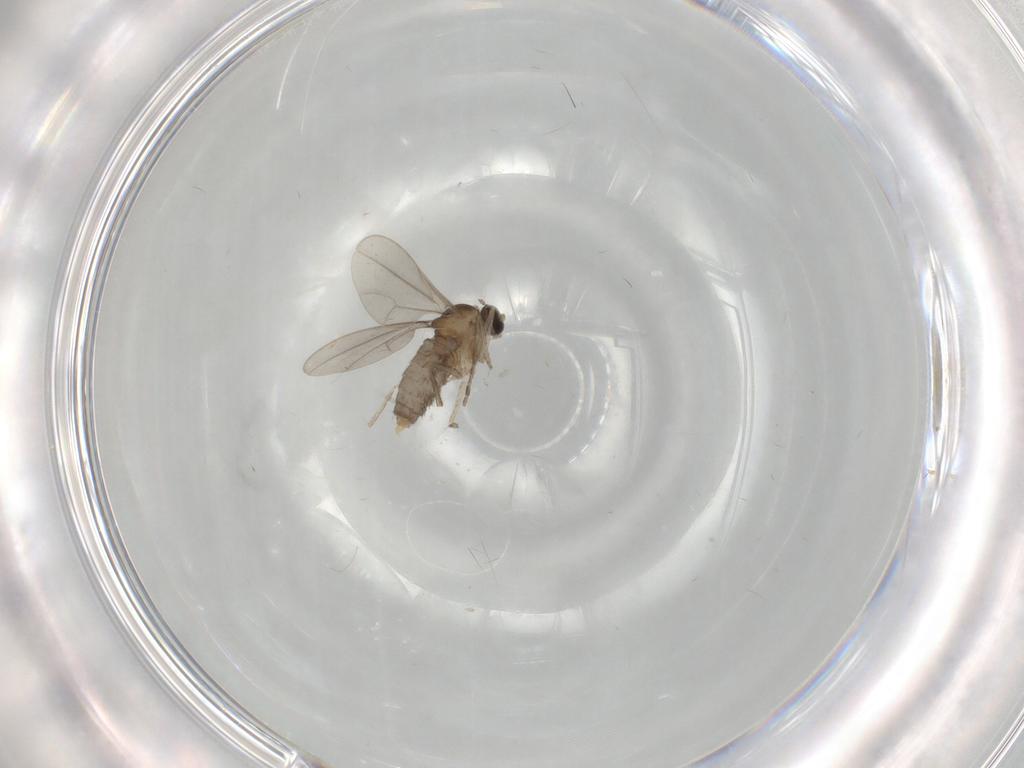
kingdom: Animalia
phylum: Arthropoda
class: Insecta
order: Diptera
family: Chironomidae
